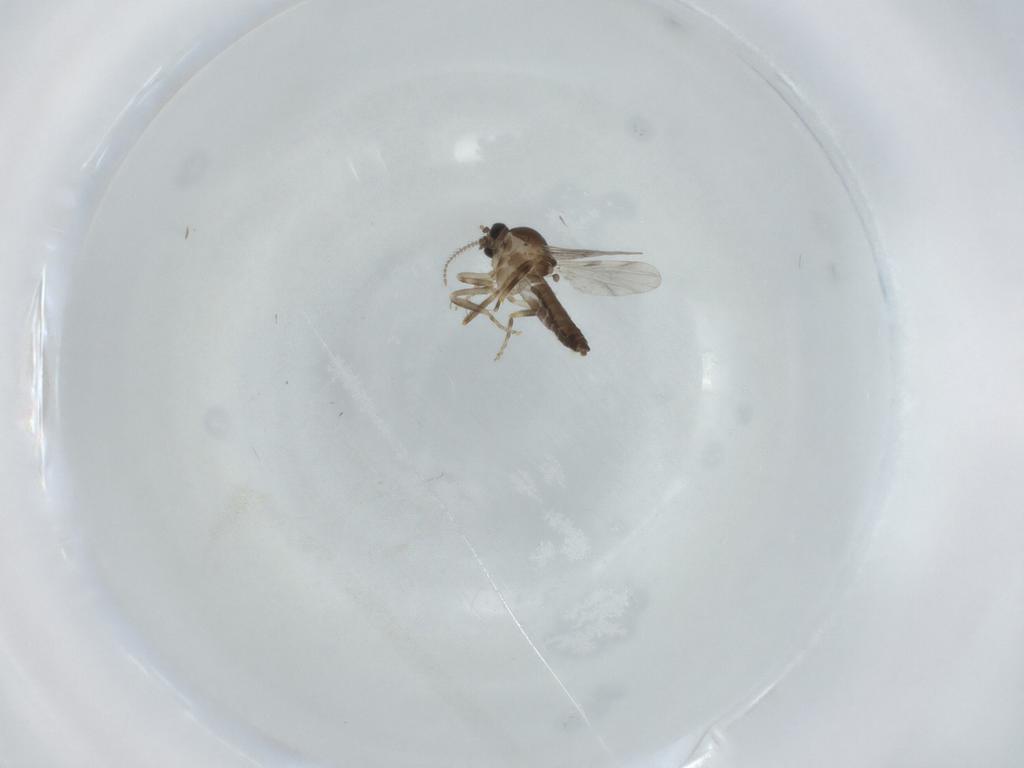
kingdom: Animalia
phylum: Arthropoda
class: Insecta
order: Diptera
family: Ceratopogonidae
